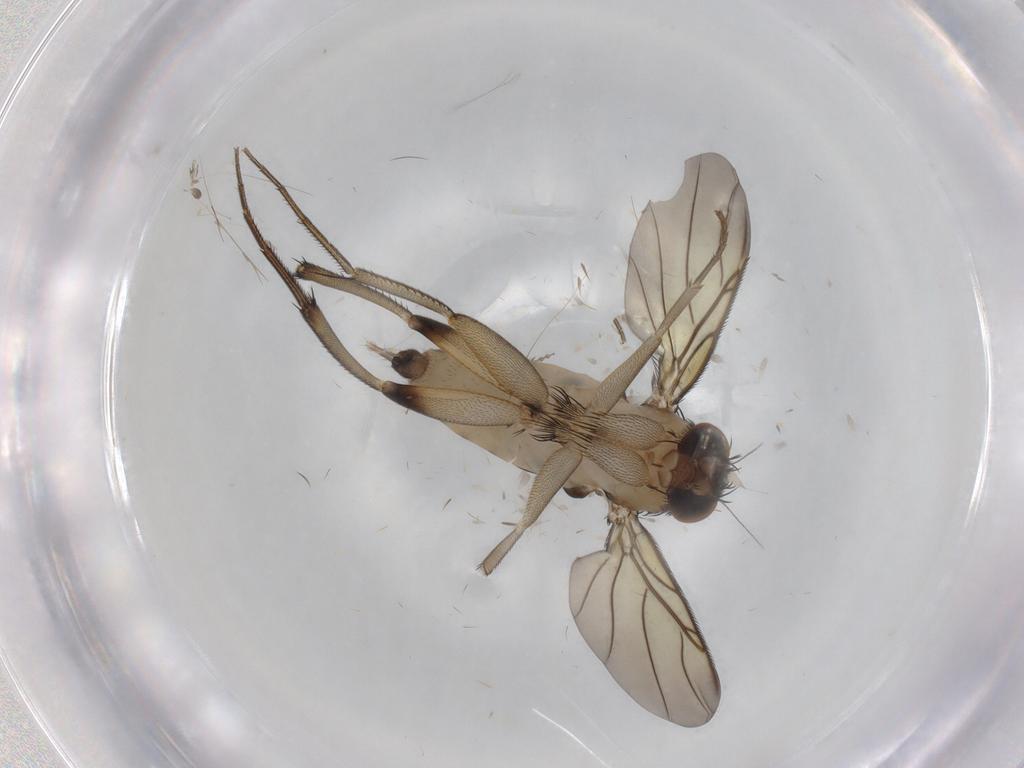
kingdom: Animalia
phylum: Arthropoda
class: Insecta
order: Diptera
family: Phoridae
